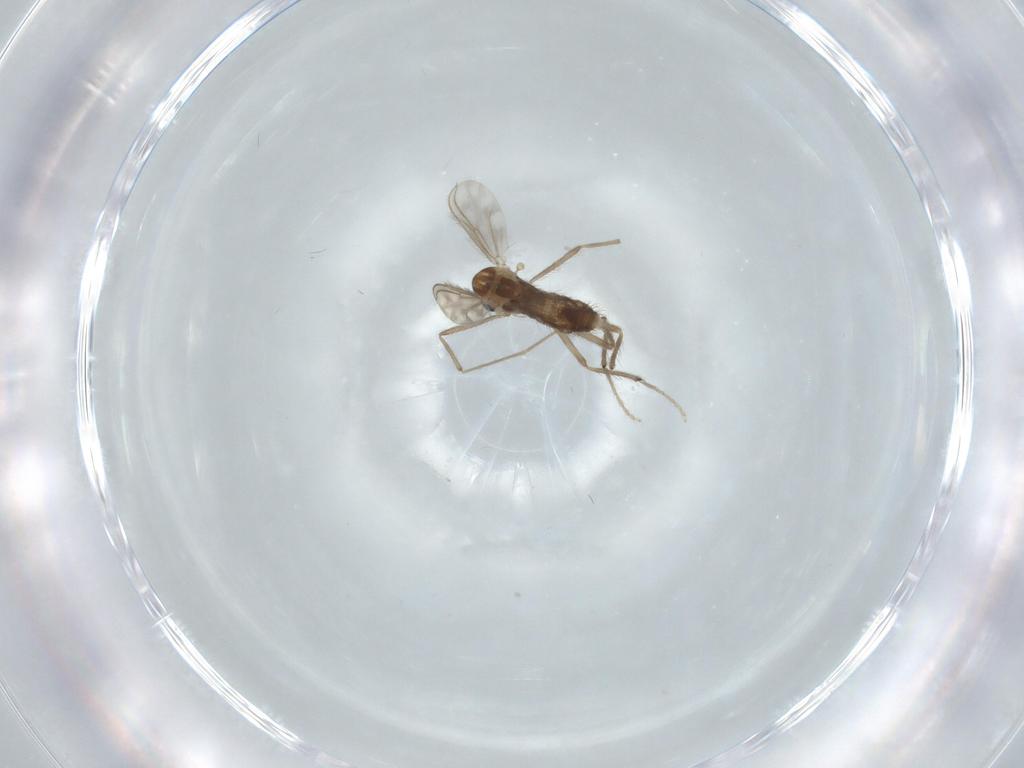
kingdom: Animalia
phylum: Arthropoda
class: Insecta
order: Diptera
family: Chironomidae
